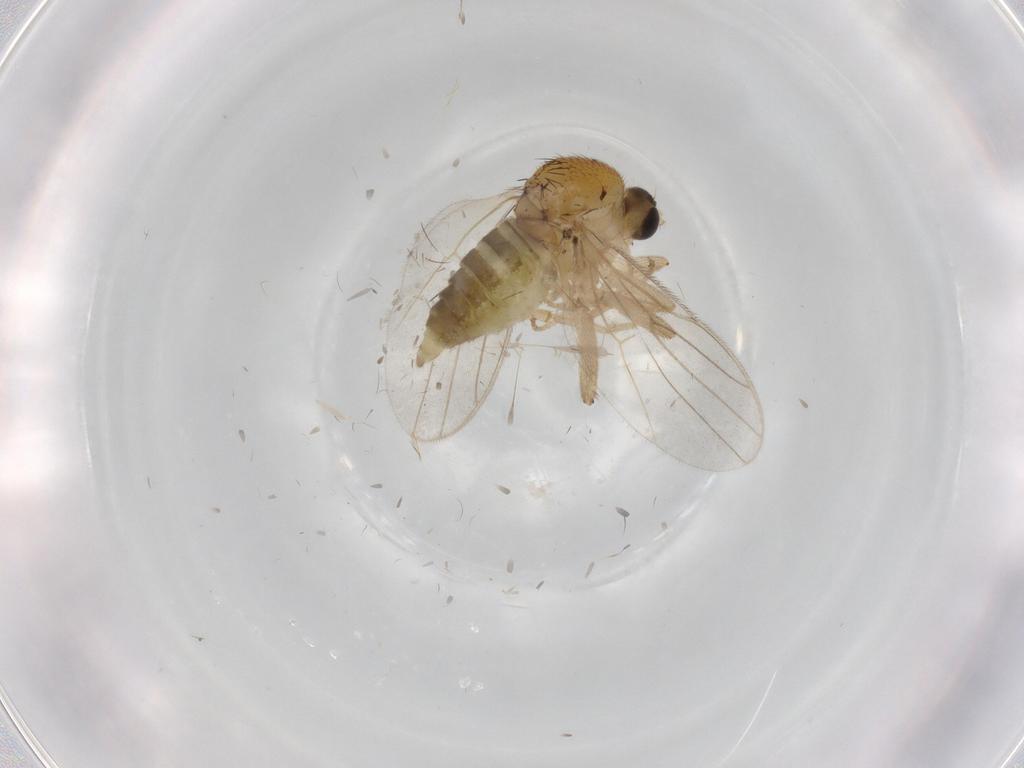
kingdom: Animalia
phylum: Arthropoda
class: Insecta
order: Diptera
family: Hybotidae
